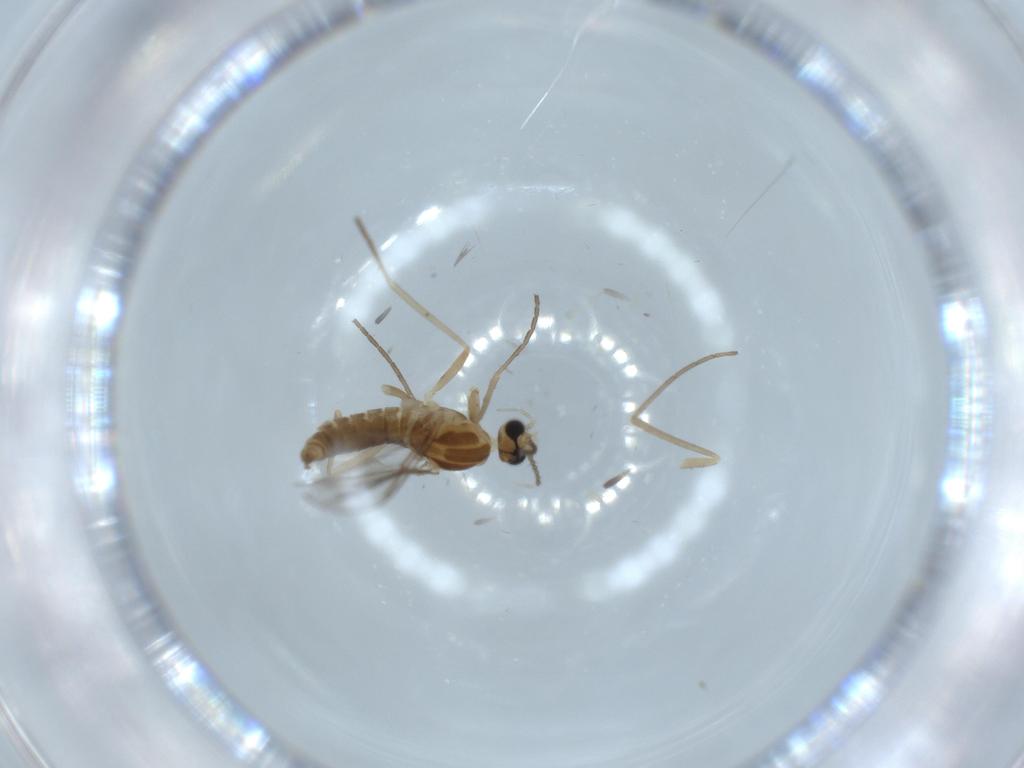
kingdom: Animalia
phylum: Arthropoda
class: Insecta
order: Diptera
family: Cecidomyiidae
